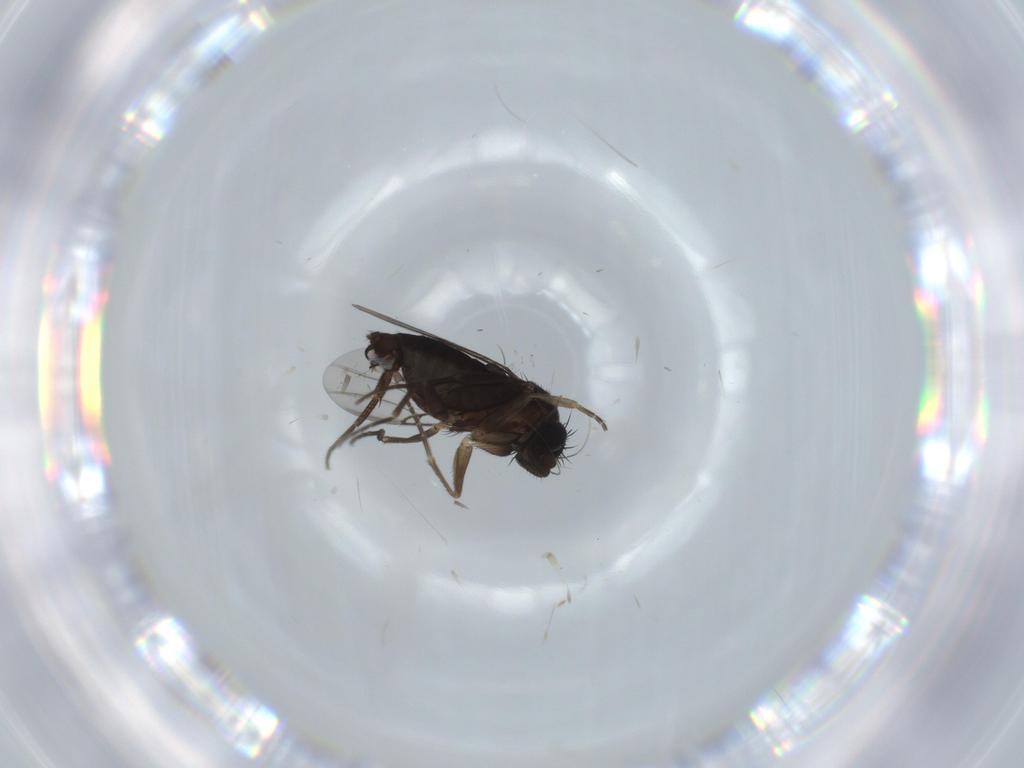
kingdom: Animalia
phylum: Arthropoda
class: Insecta
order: Diptera
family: Phoridae
